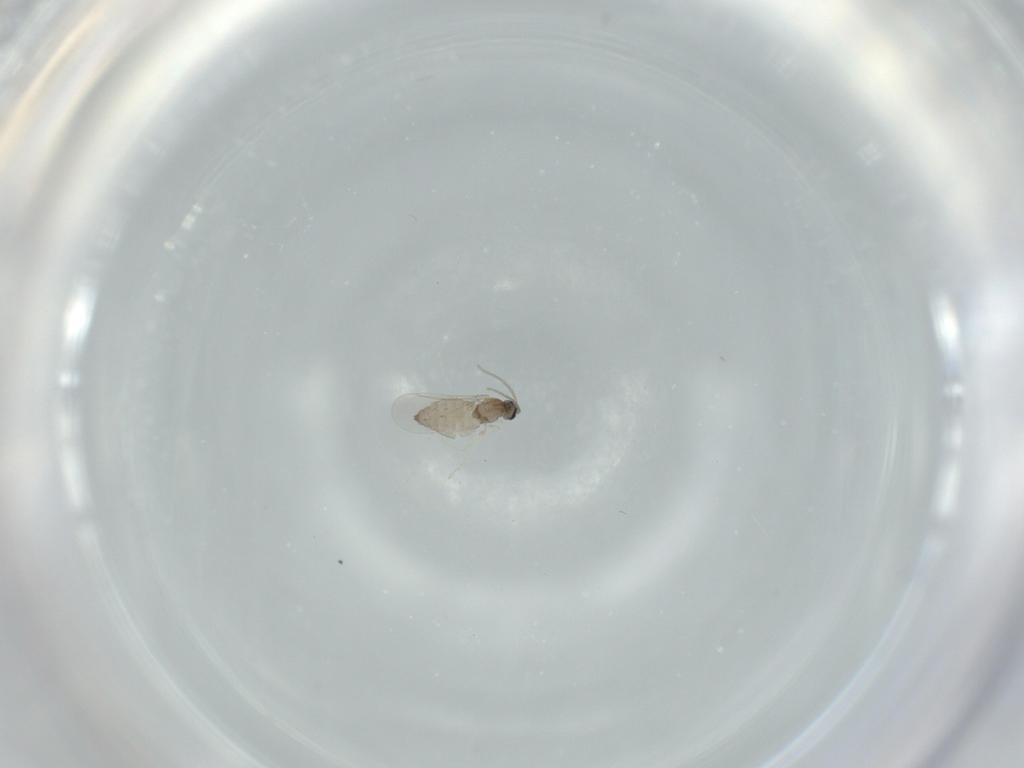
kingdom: Animalia
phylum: Arthropoda
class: Insecta
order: Diptera
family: Cecidomyiidae
